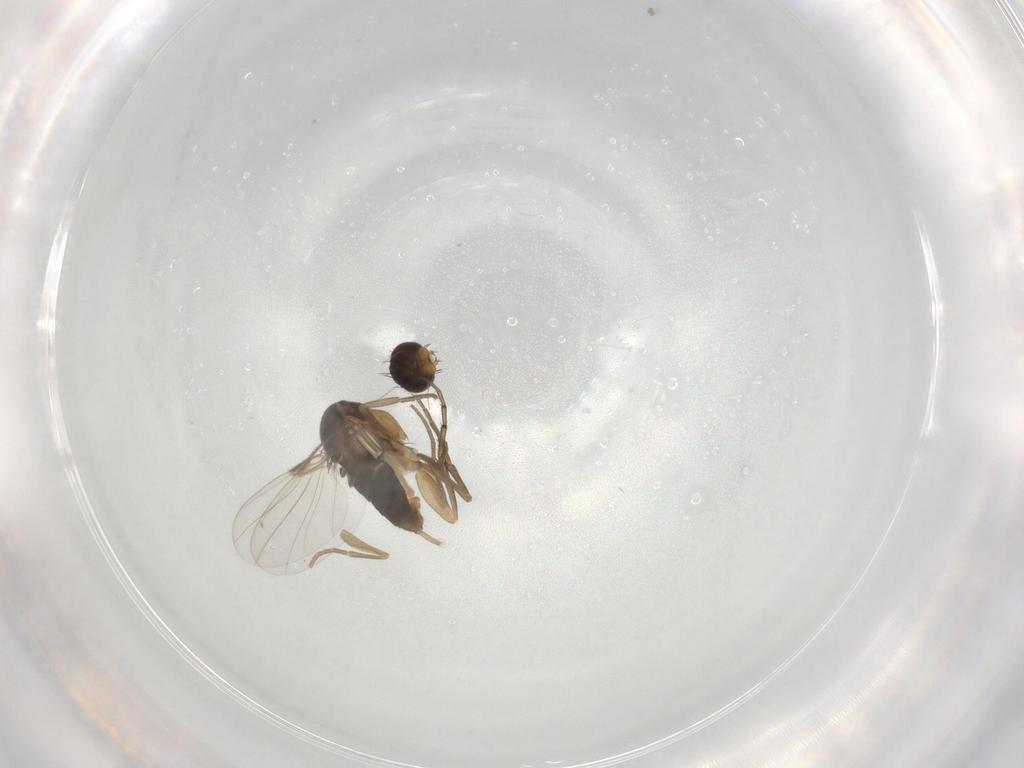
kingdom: Animalia
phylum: Arthropoda
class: Insecta
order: Diptera
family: Phoridae
